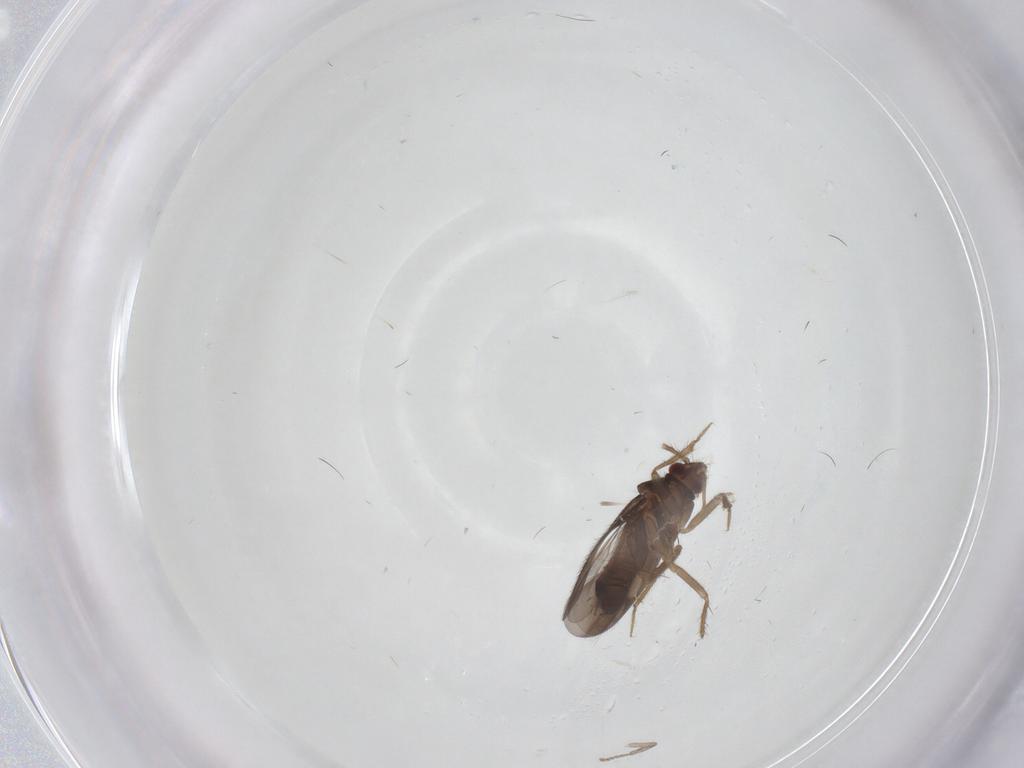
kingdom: Animalia
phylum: Arthropoda
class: Insecta
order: Hemiptera
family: Ceratocombidae
